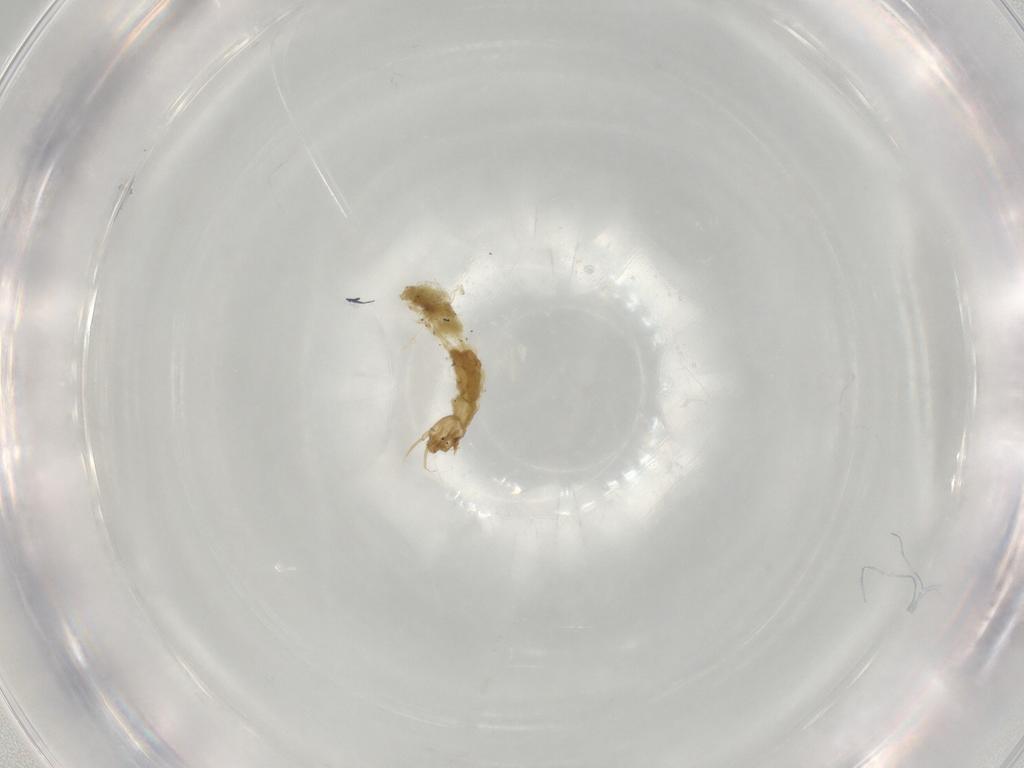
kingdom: Animalia
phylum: Arthropoda
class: Insecta
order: Diptera
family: Chironomidae
